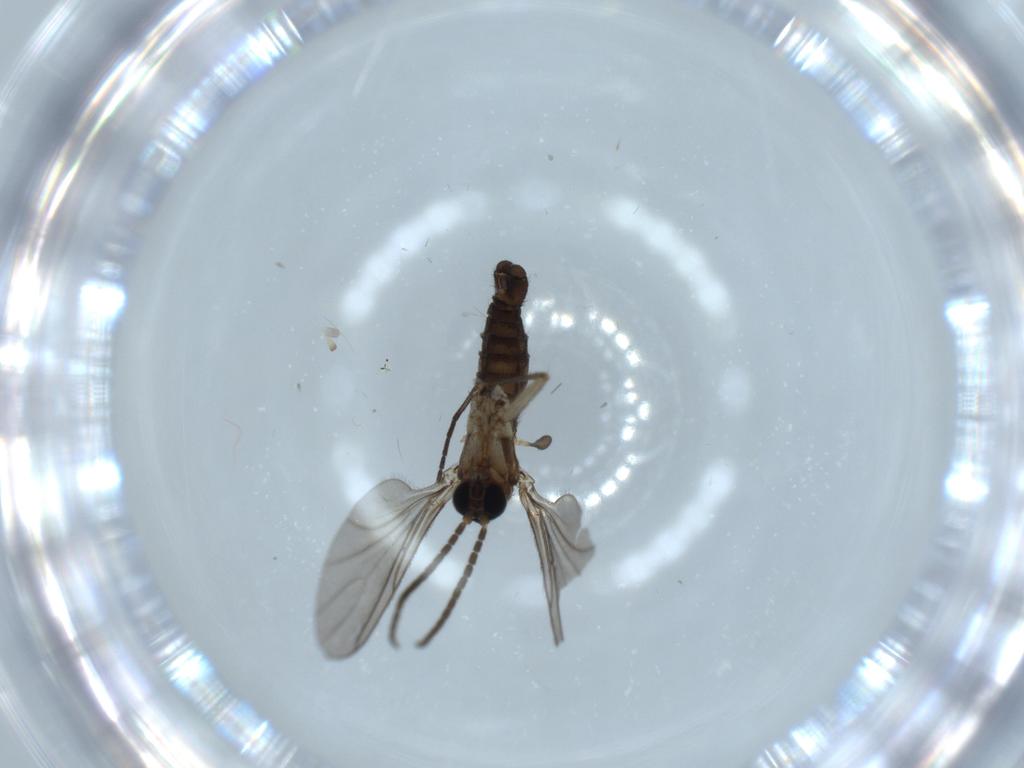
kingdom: Animalia
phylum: Arthropoda
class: Insecta
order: Diptera
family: Sciaridae
